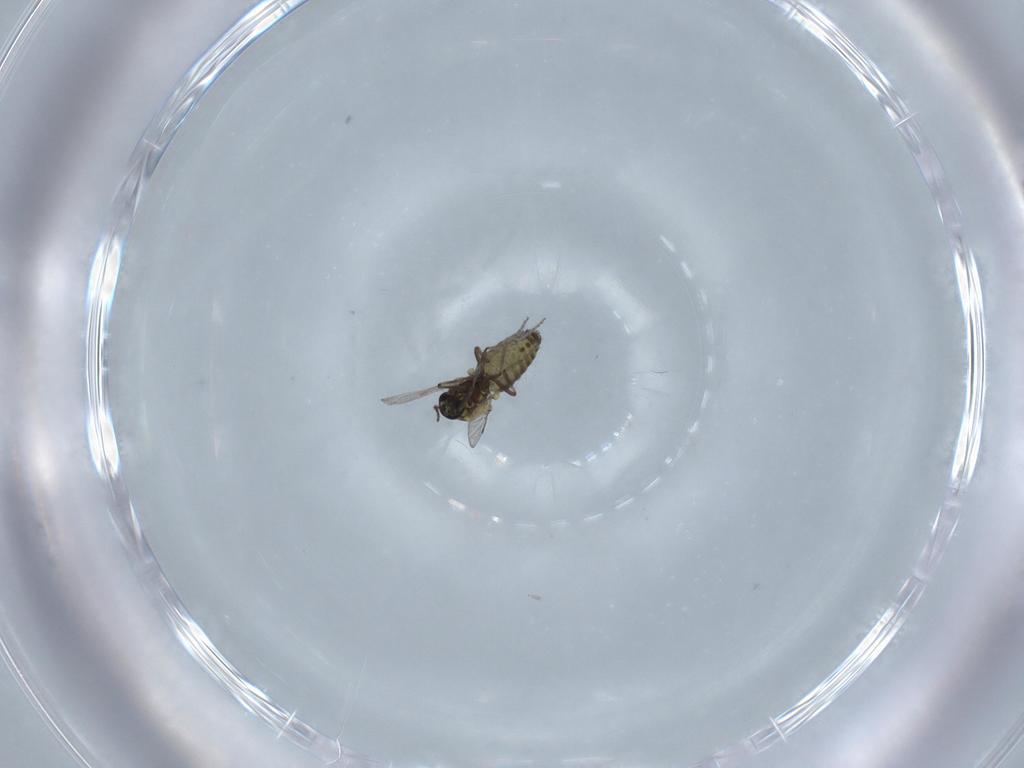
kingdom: Animalia
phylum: Arthropoda
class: Insecta
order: Diptera
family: Ceratopogonidae
